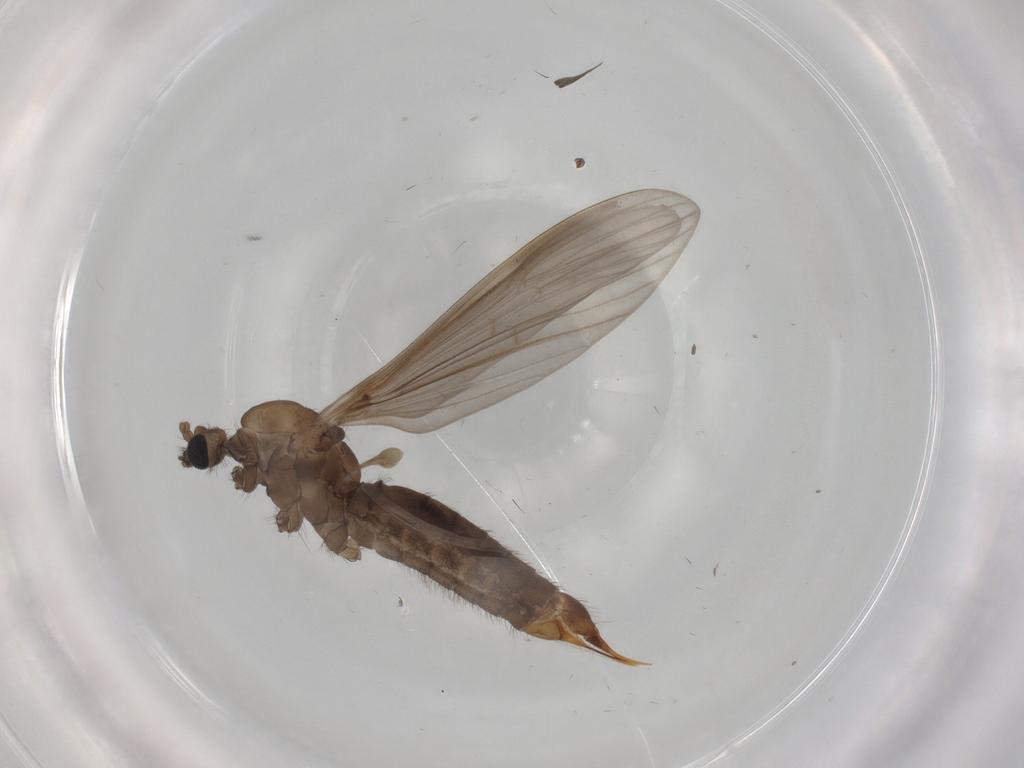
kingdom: Animalia
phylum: Arthropoda
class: Insecta
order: Diptera
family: Limoniidae
